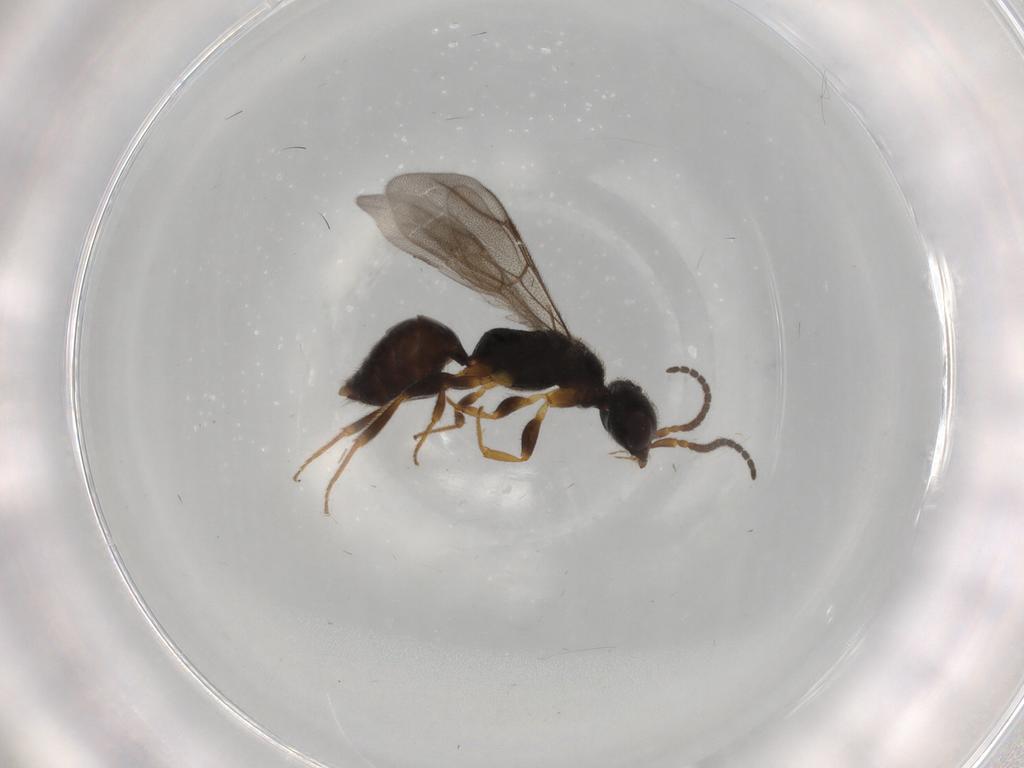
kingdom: Animalia
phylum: Arthropoda
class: Insecta
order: Hymenoptera
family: Bethylidae
